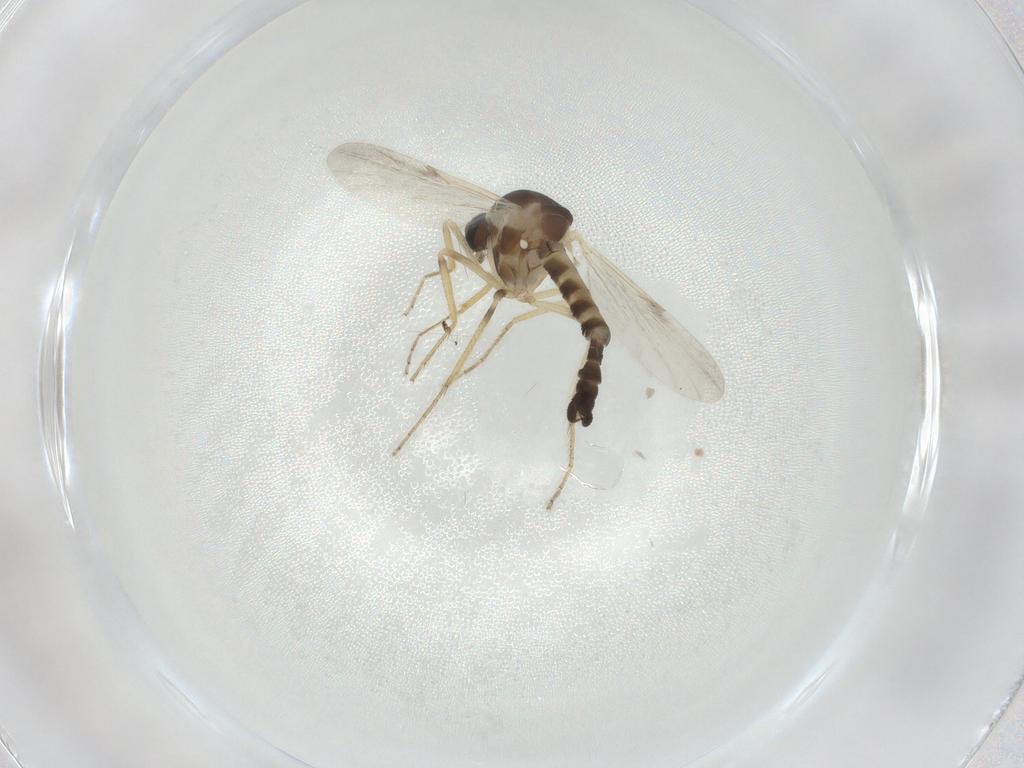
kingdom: Animalia
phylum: Arthropoda
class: Insecta
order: Diptera
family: Ceratopogonidae
